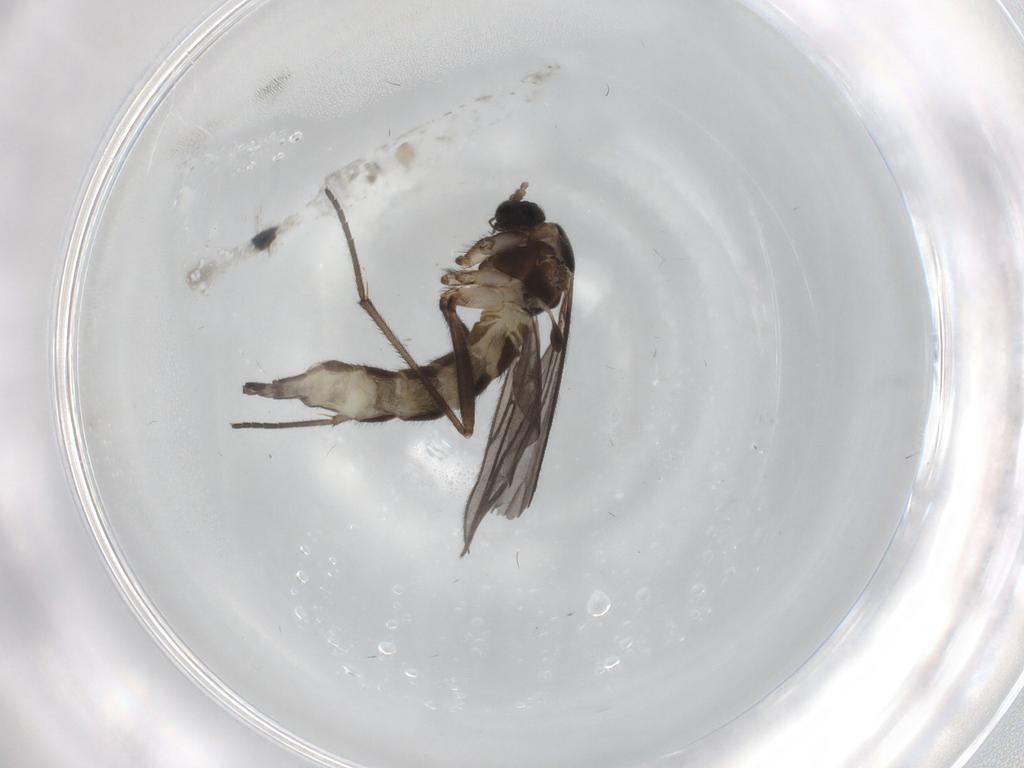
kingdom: Animalia
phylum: Arthropoda
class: Insecta
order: Diptera
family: Sciaridae
